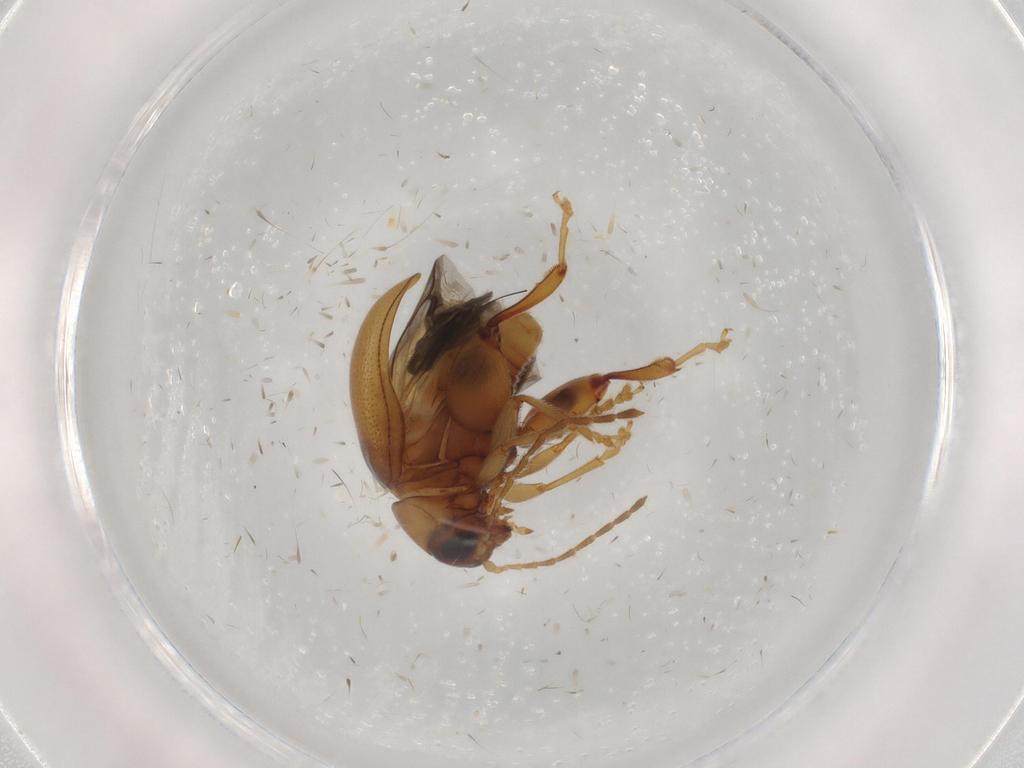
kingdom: Animalia
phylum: Arthropoda
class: Insecta
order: Coleoptera
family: Chrysomelidae
